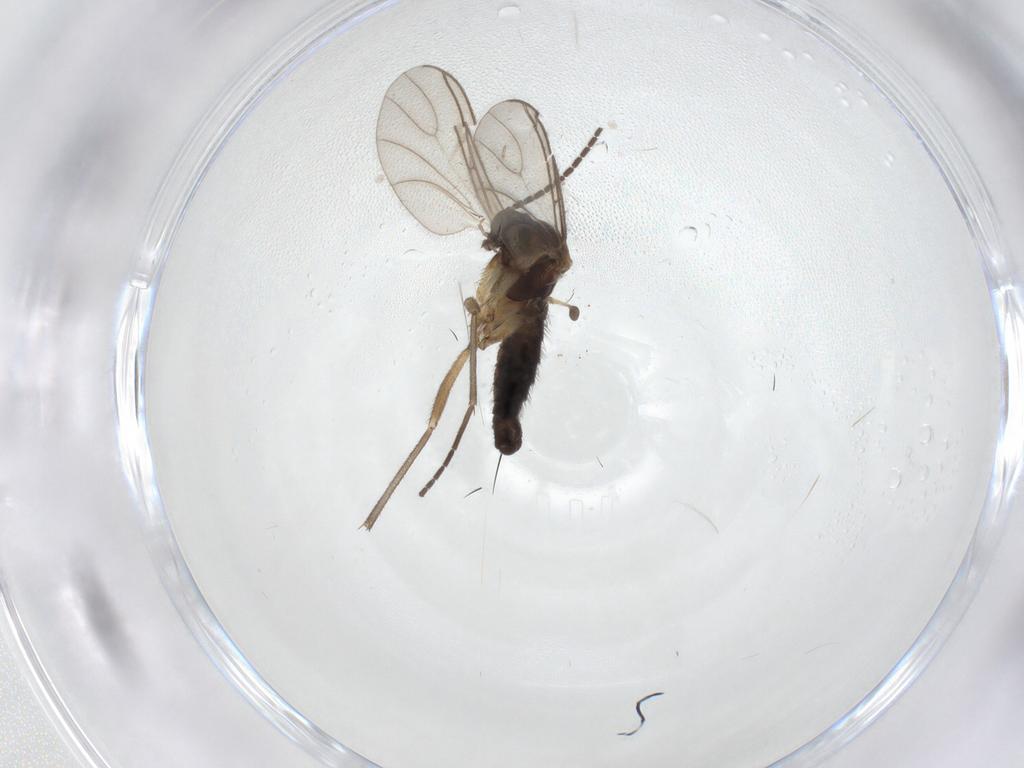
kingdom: Animalia
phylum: Arthropoda
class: Insecta
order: Diptera
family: Sciaridae
